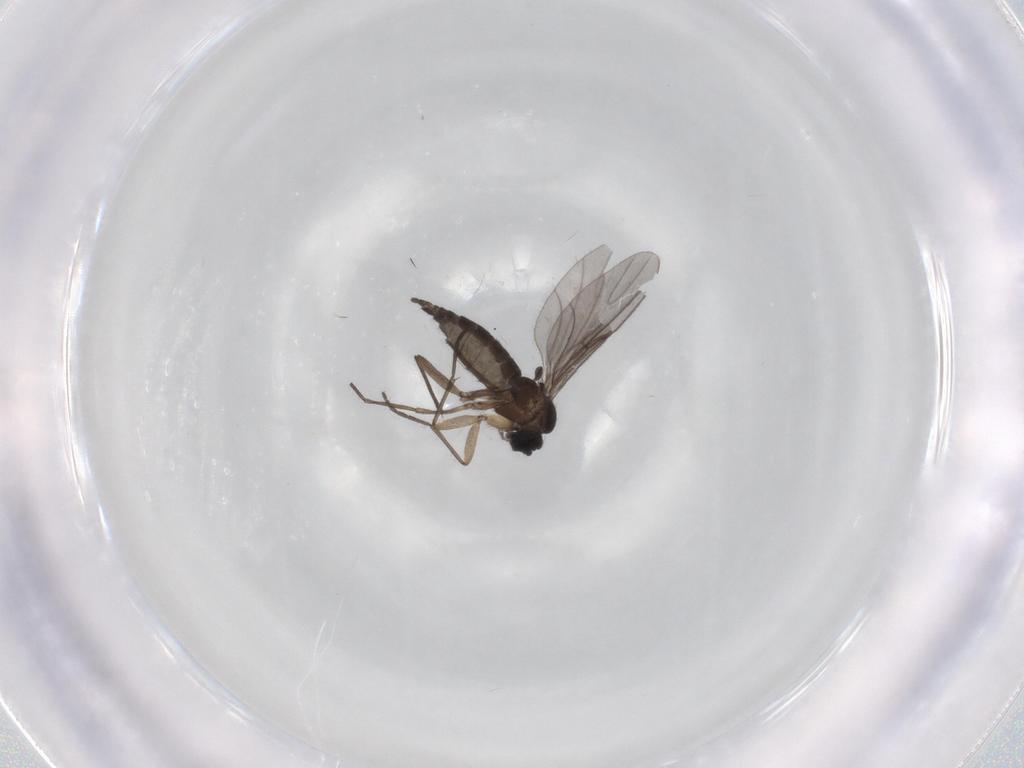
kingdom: Animalia
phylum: Arthropoda
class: Insecta
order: Diptera
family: Sciaridae
